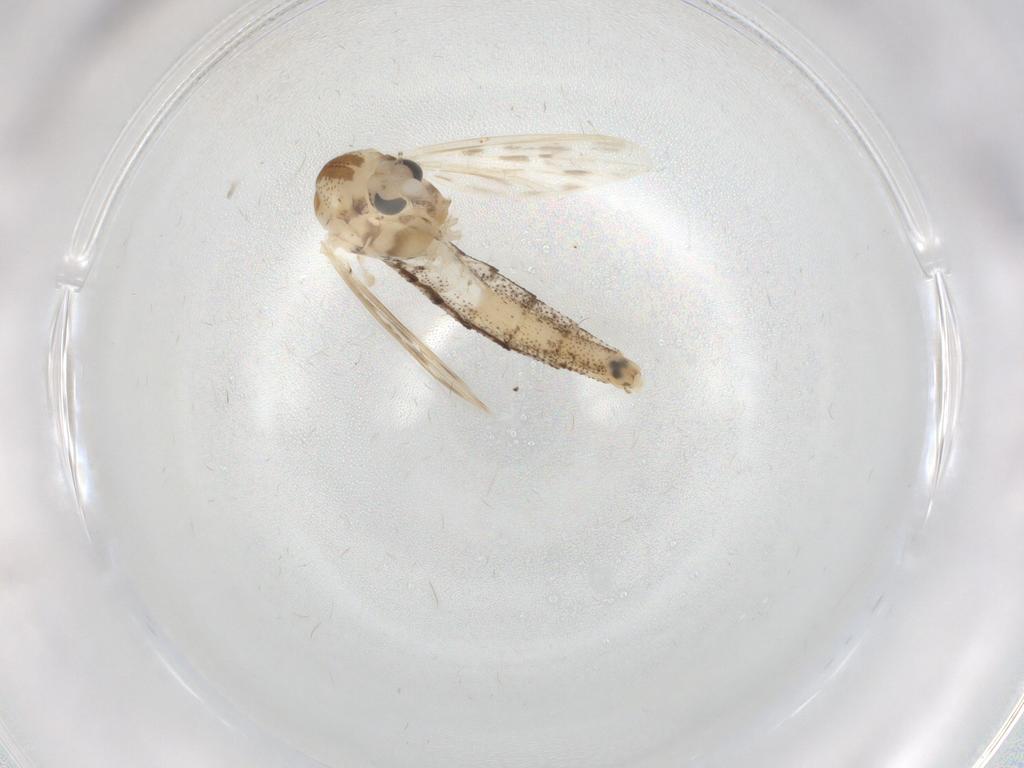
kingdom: Animalia
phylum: Arthropoda
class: Insecta
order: Diptera
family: Chaoboridae
